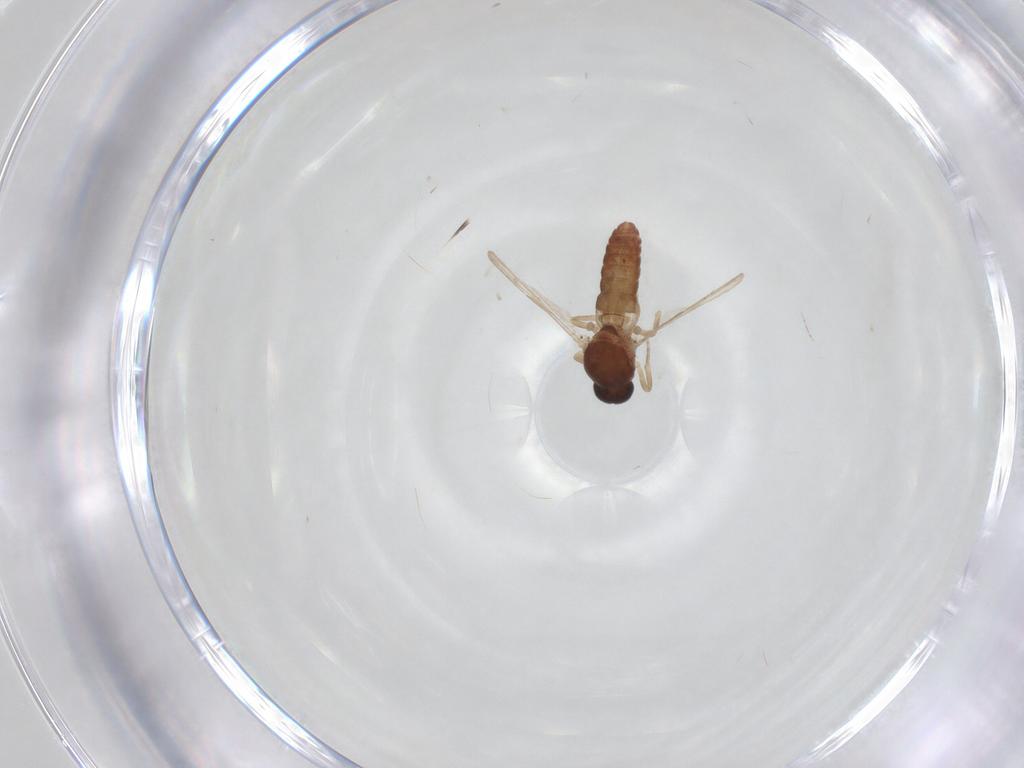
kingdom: Animalia
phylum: Arthropoda
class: Insecta
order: Diptera
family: Ceratopogonidae
